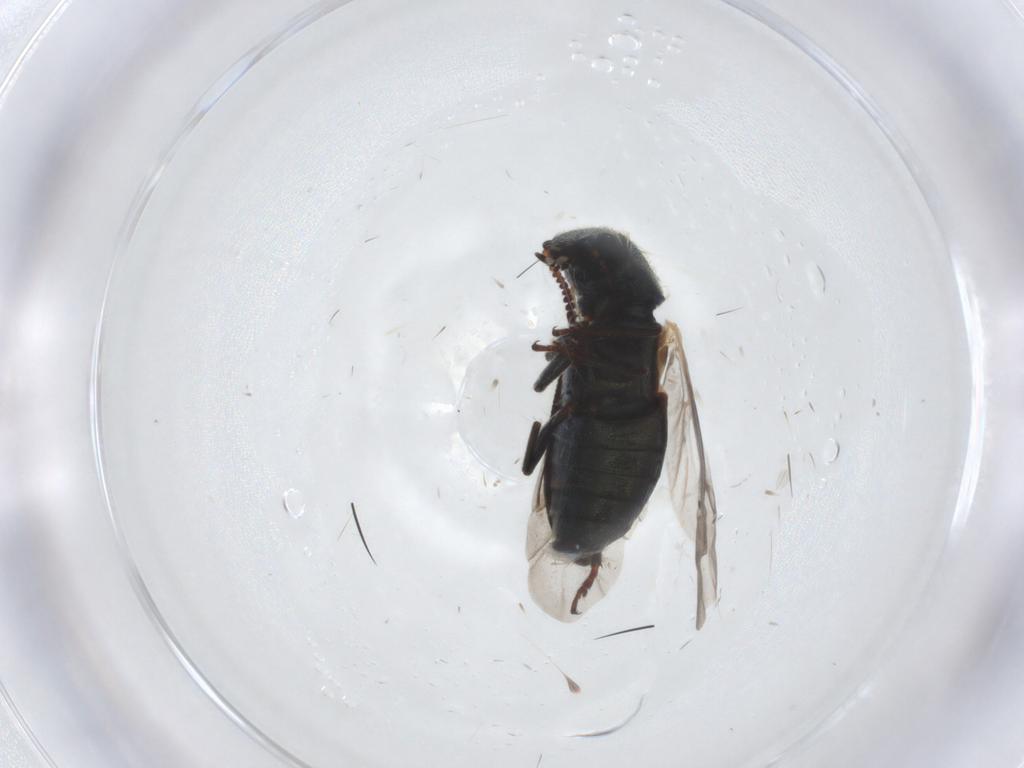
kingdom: Animalia
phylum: Arthropoda
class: Insecta
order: Coleoptera
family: Melyridae
